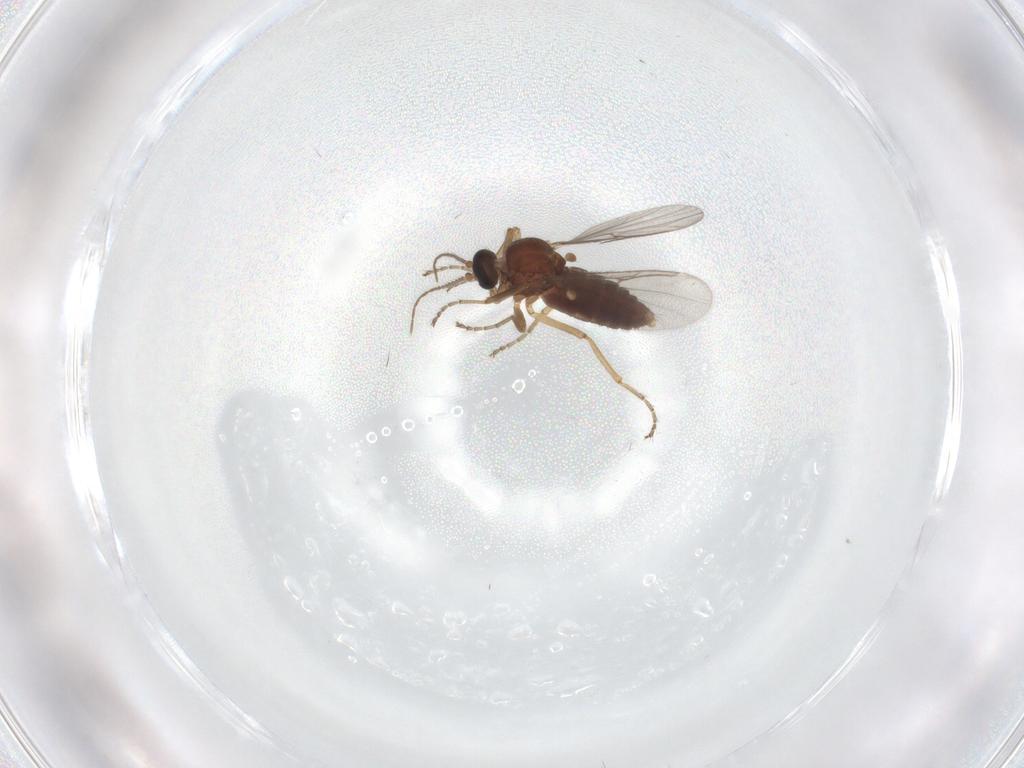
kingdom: Animalia
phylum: Arthropoda
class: Insecta
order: Diptera
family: Ceratopogonidae
